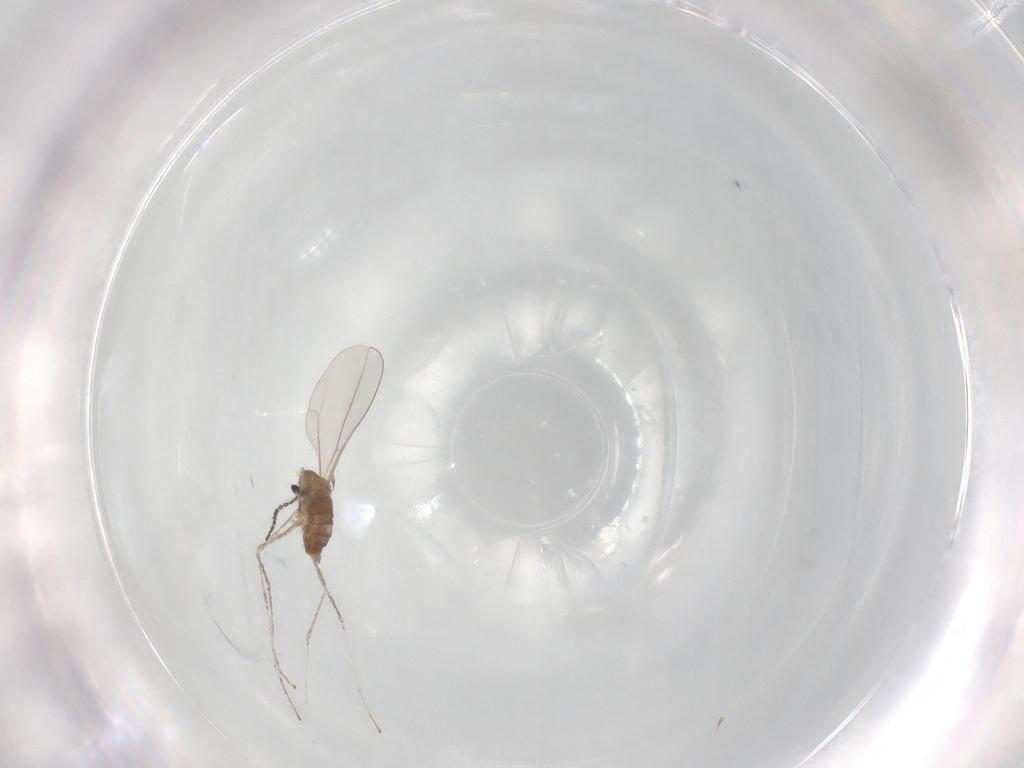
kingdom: Animalia
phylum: Arthropoda
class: Insecta
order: Diptera
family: Cecidomyiidae
